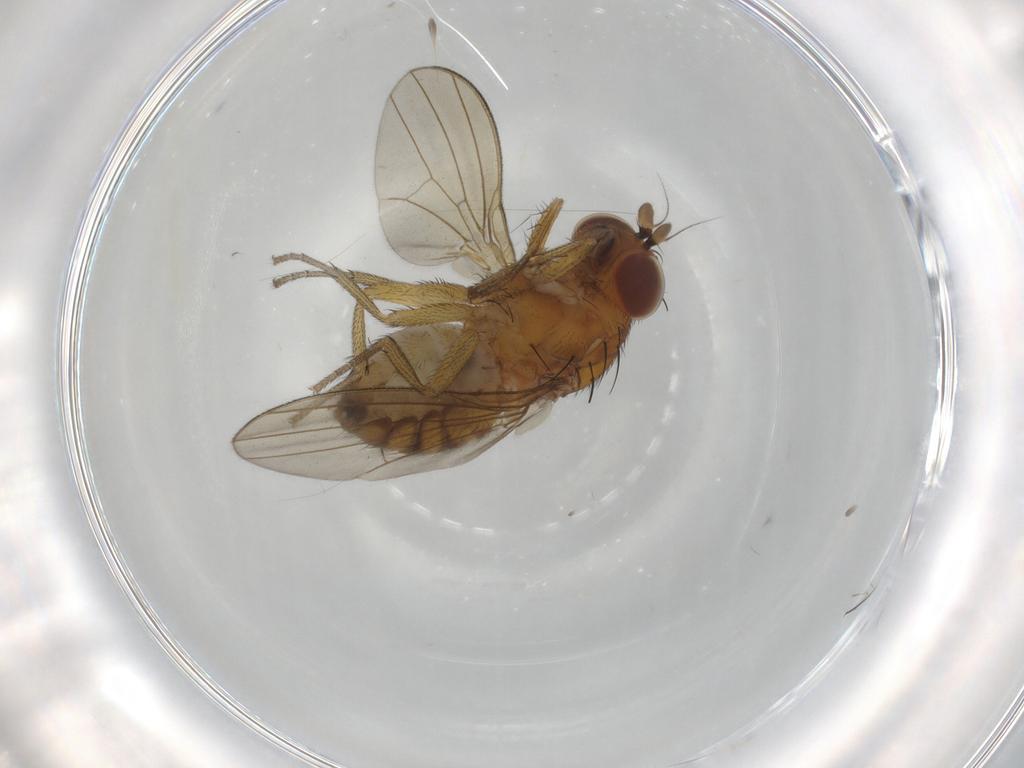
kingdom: Animalia
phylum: Arthropoda
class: Insecta
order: Diptera
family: Cecidomyiidae
